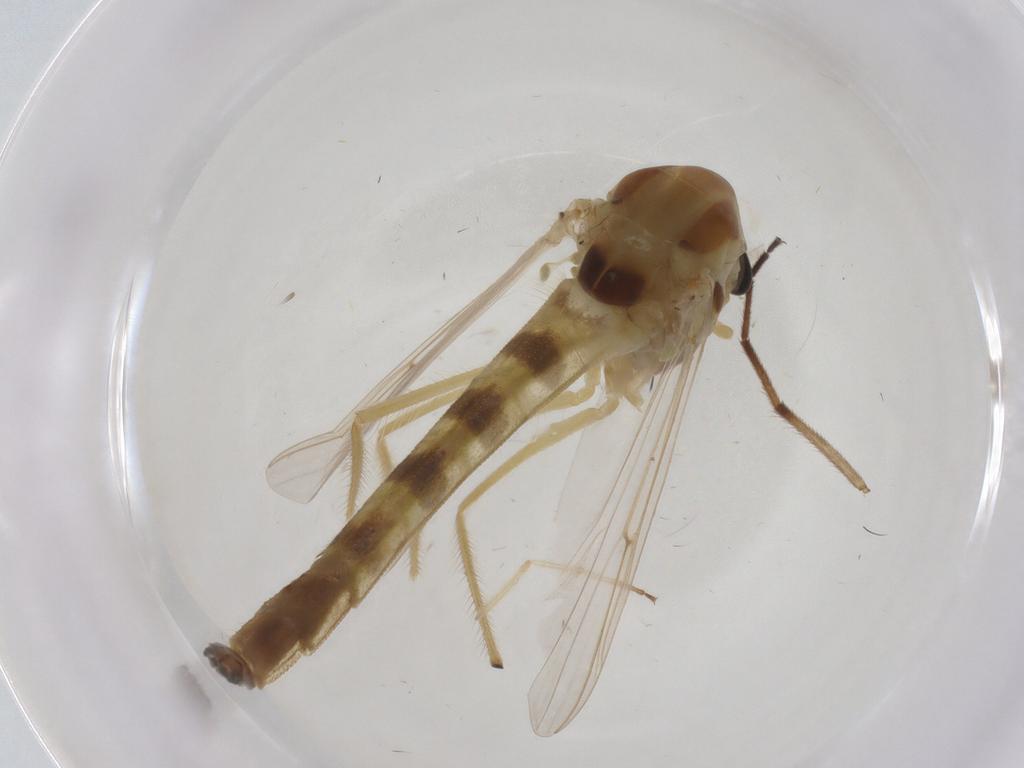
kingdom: Animalia
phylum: Arthropoda
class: Insecta
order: Diptera
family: Chironomidae
